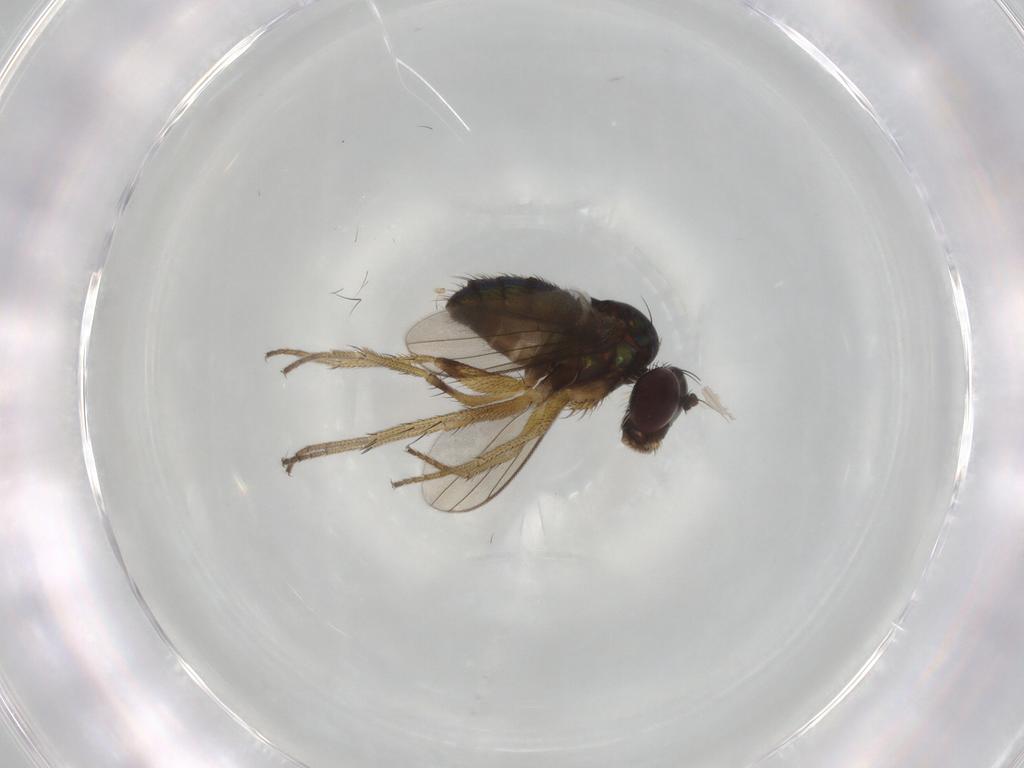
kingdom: Animalia
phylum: Arthropoda
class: Insecta
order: Diptera
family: Dolichopodidae
